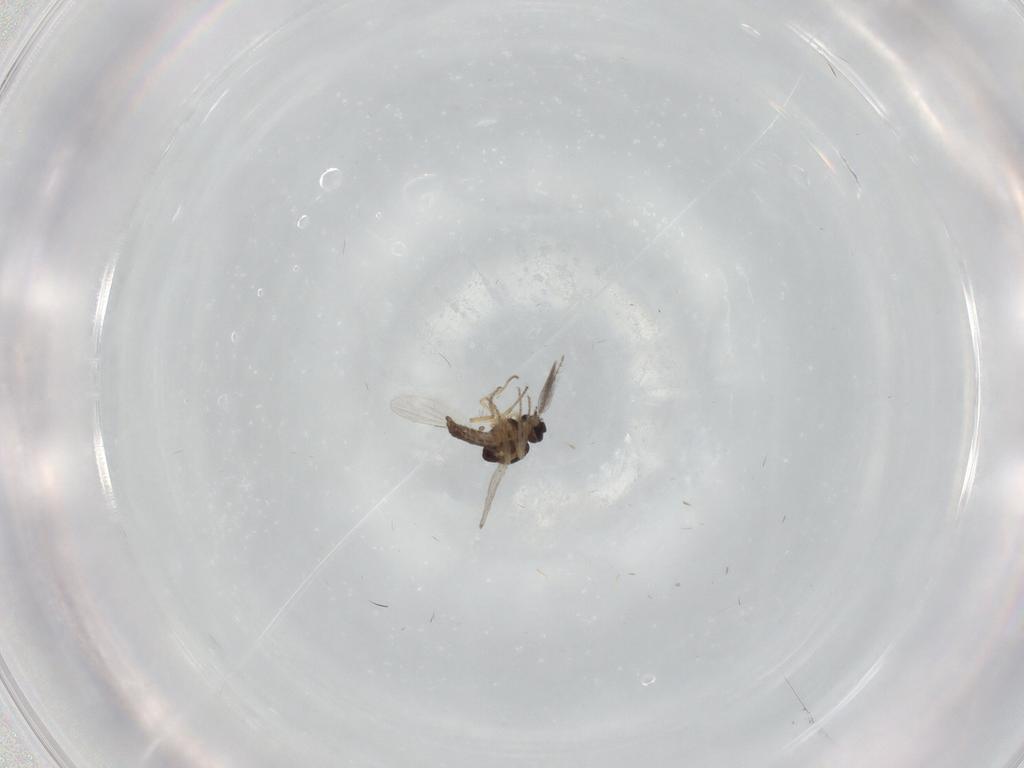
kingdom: Animalia
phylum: Arthropoda
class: Insecta
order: Diptera
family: Ceratopogonidae
